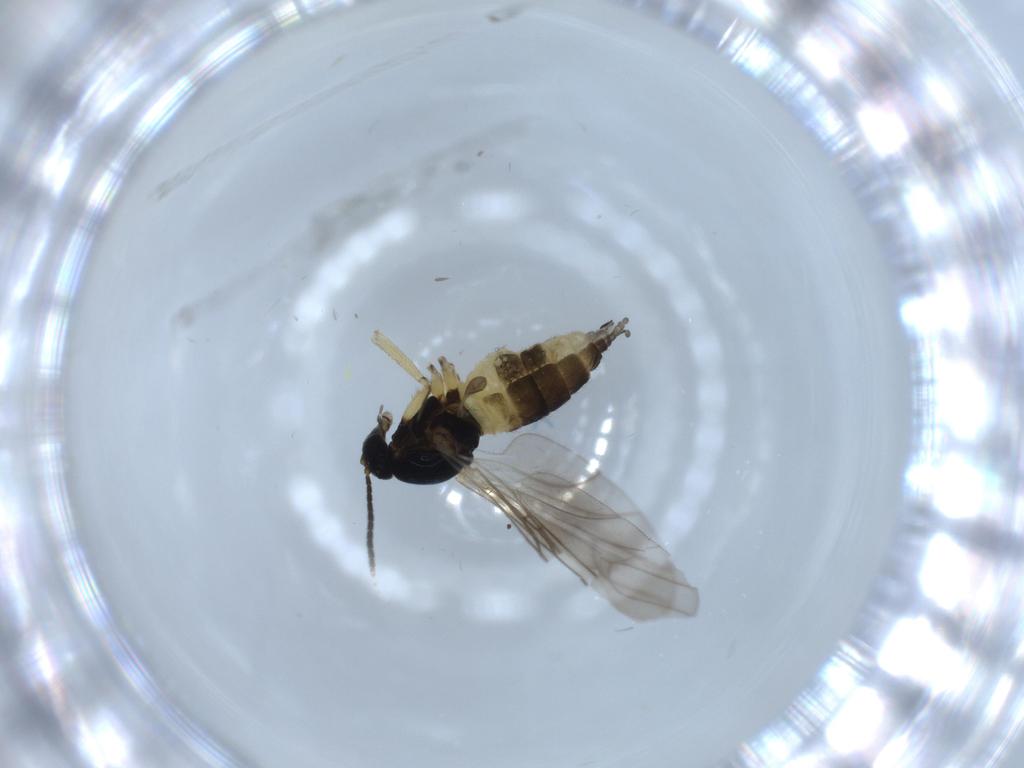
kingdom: Animalia
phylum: Arthropoda
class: Insecta
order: Diptera
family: Sciaridae
